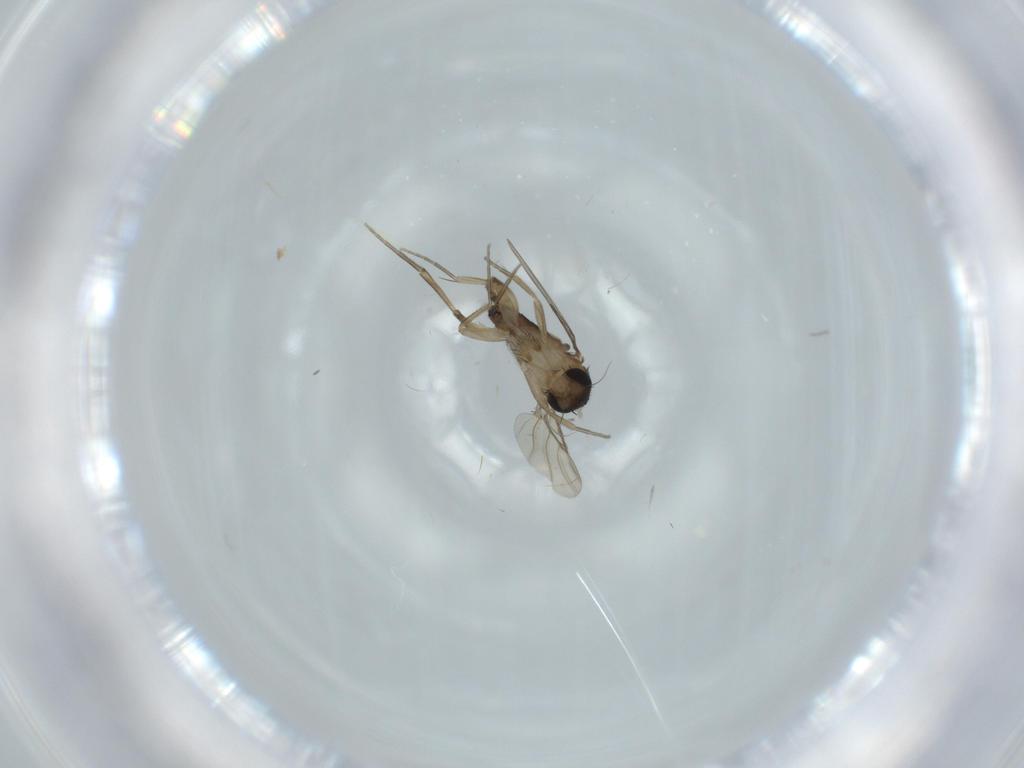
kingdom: Animalia
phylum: Arthropoda
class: Insecta
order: Diptera
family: Phoridae
